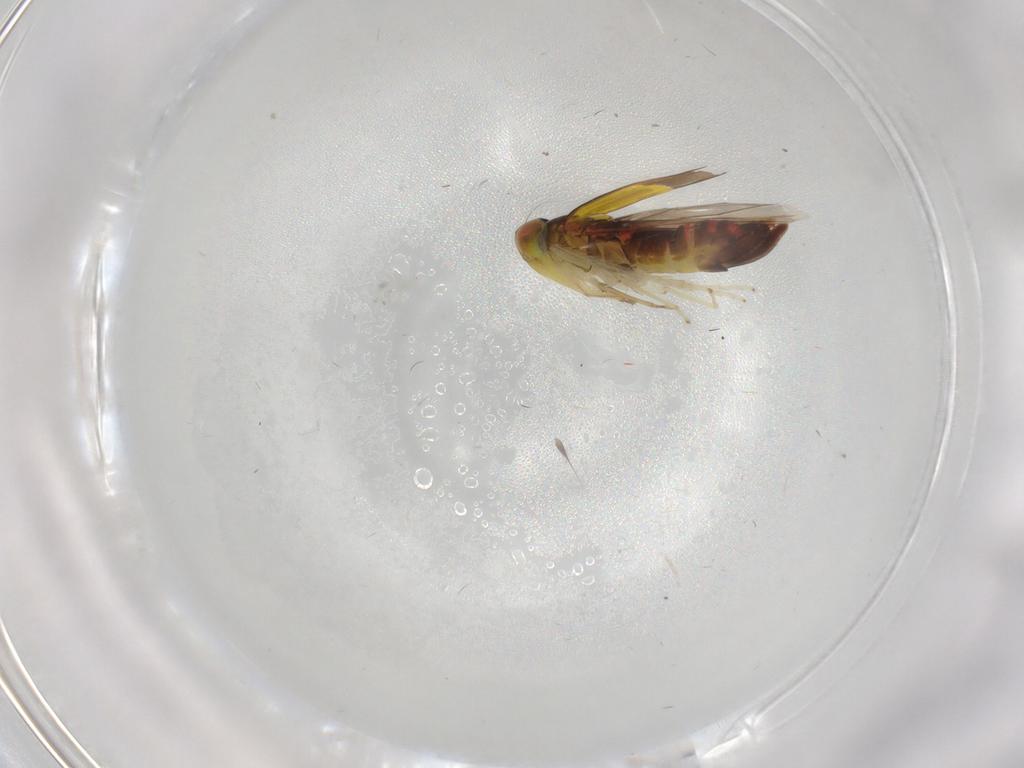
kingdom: Animalia
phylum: Arthropoda
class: Insecta
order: Hemiptera
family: Cicadellidae
